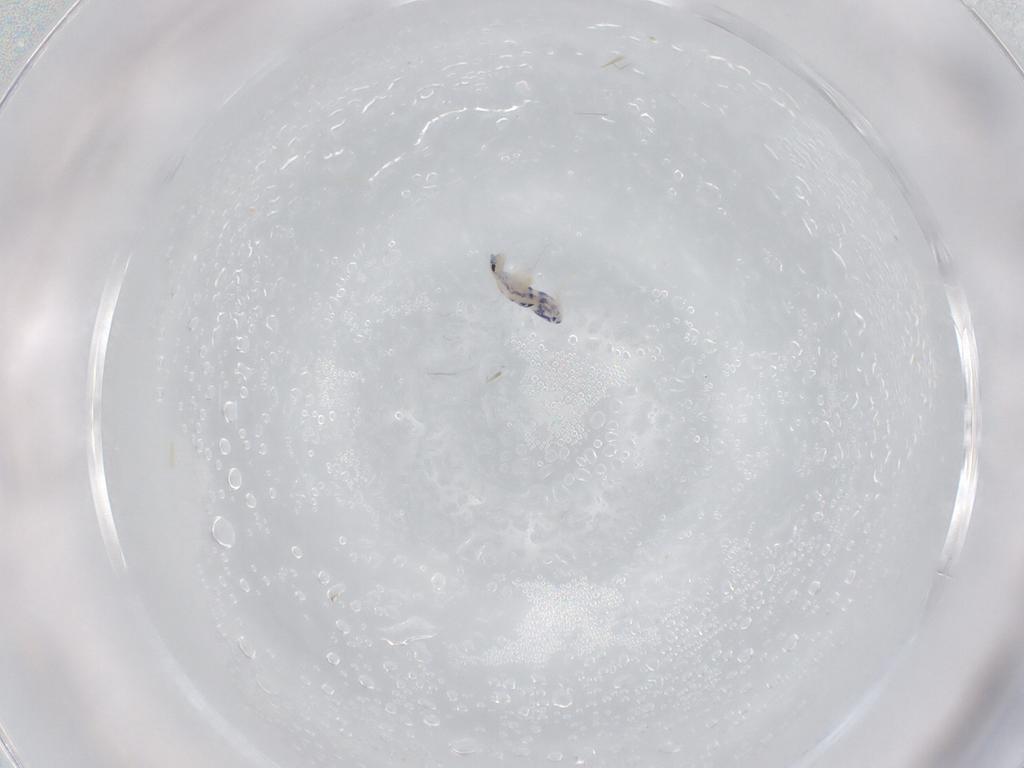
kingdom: Animalia
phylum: Arthropoda
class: Collembola
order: Entomobryomorpha
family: Entomobryidae
